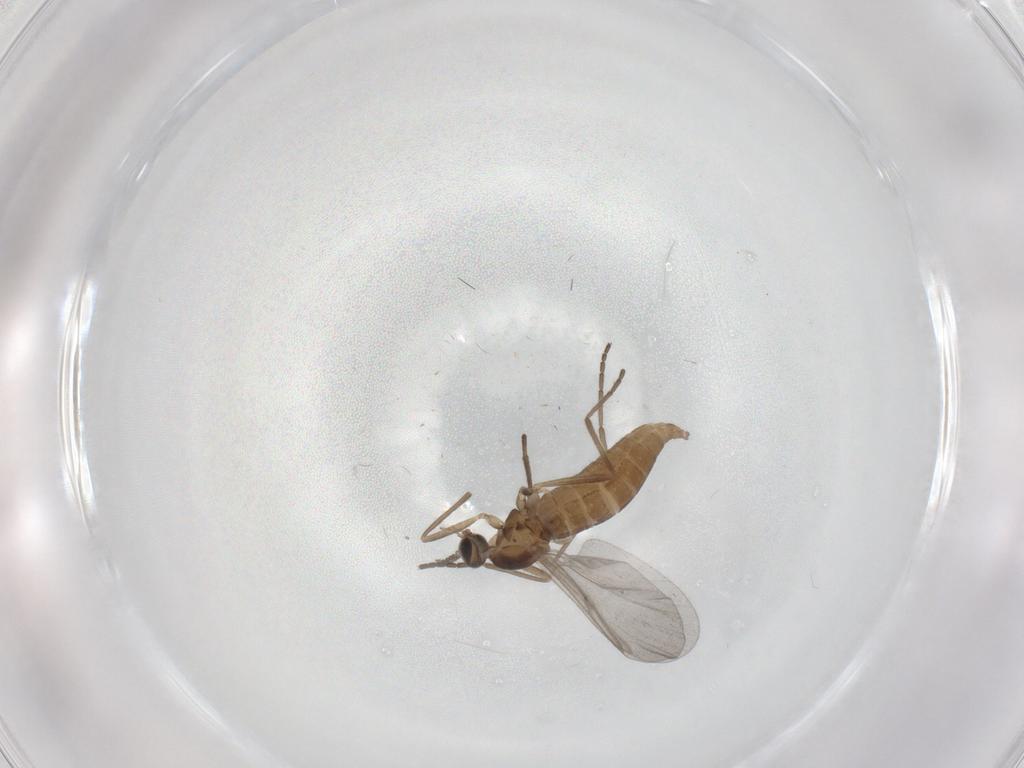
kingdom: Animalia
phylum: Arthropoda
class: Insecta
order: Diptera
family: Cecidomyiidae
